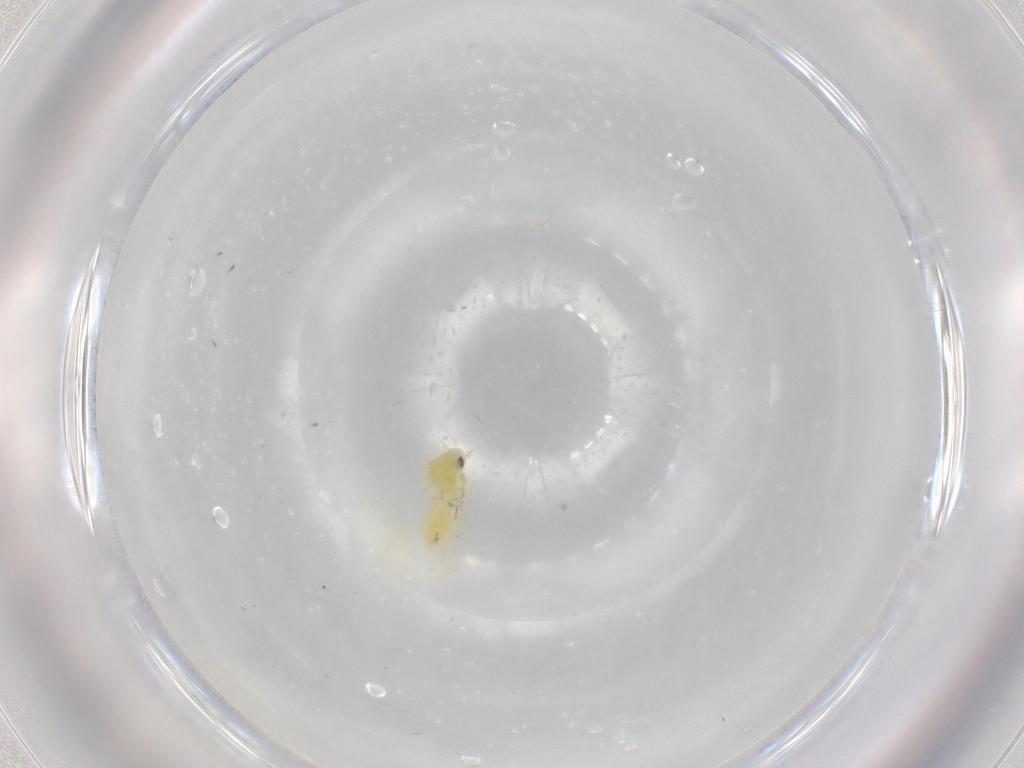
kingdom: Animalia
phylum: Arthropoda
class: Insecta
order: Hemiptera
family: Aleyrodidae
